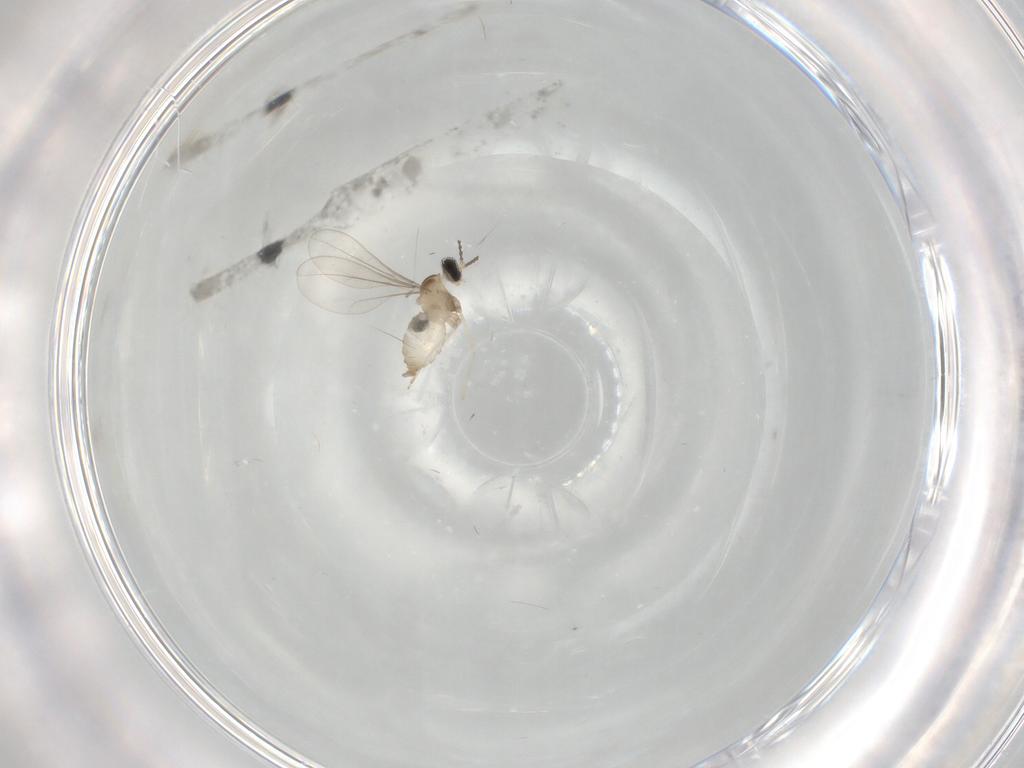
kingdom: Animalia
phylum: Arthropoda
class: Insecta
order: Diptera
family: Cecidomyiidae
